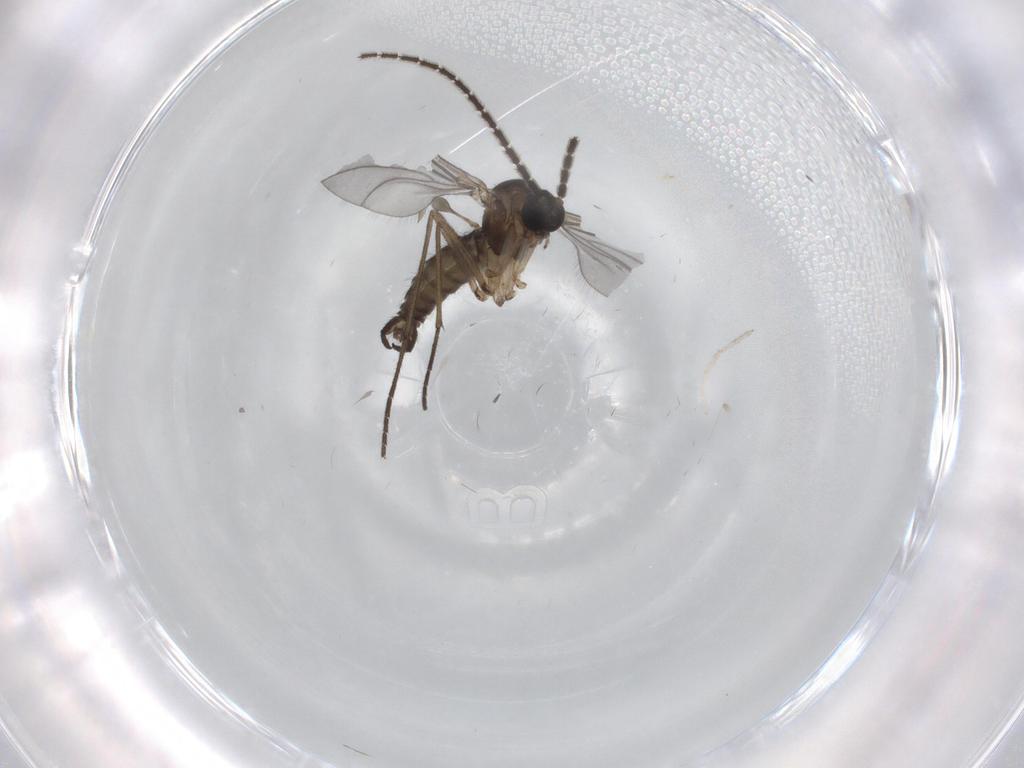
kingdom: Animalia
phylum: Arthropoda
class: Insecta
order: Diptera
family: Chironomidae
